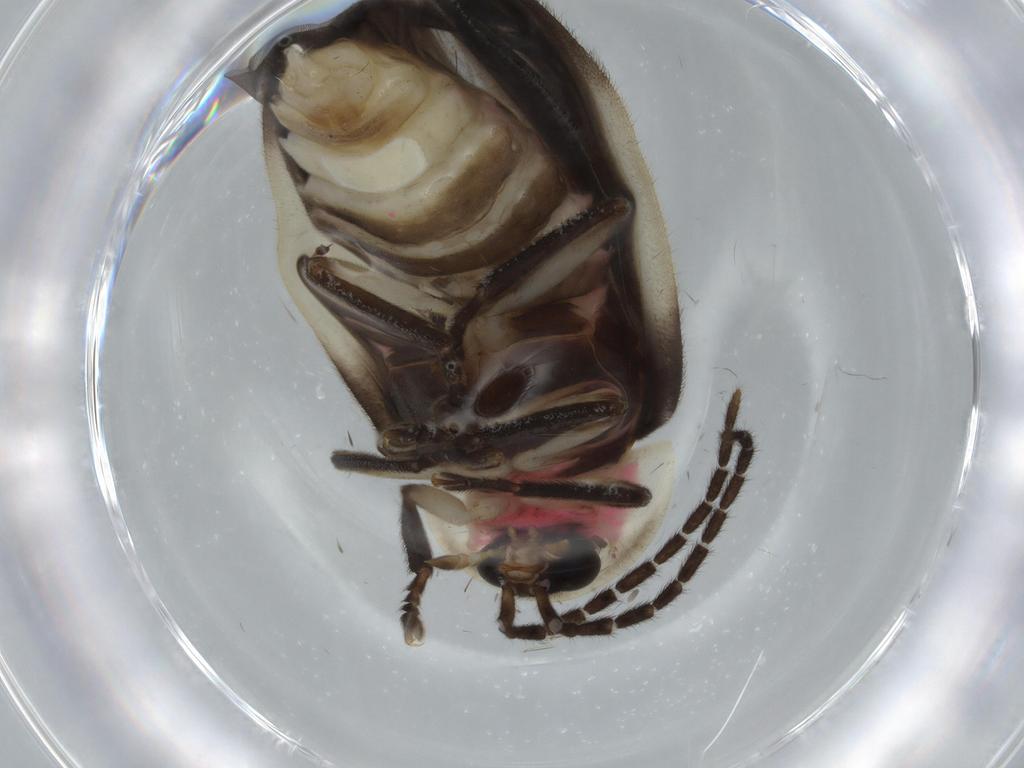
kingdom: Animalia
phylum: Arthropoda
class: Insecta
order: Coleoptera
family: Lampyridae
